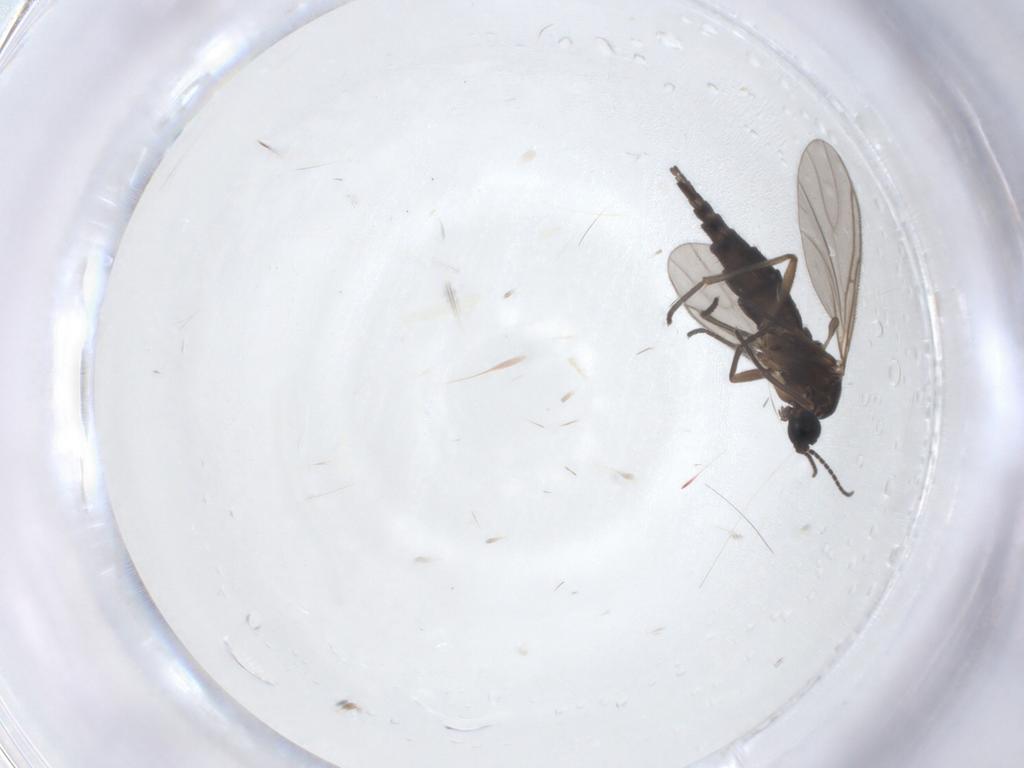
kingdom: Animalia
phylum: Arthropoda
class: Insecta
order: Diptera
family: Sciaridae
